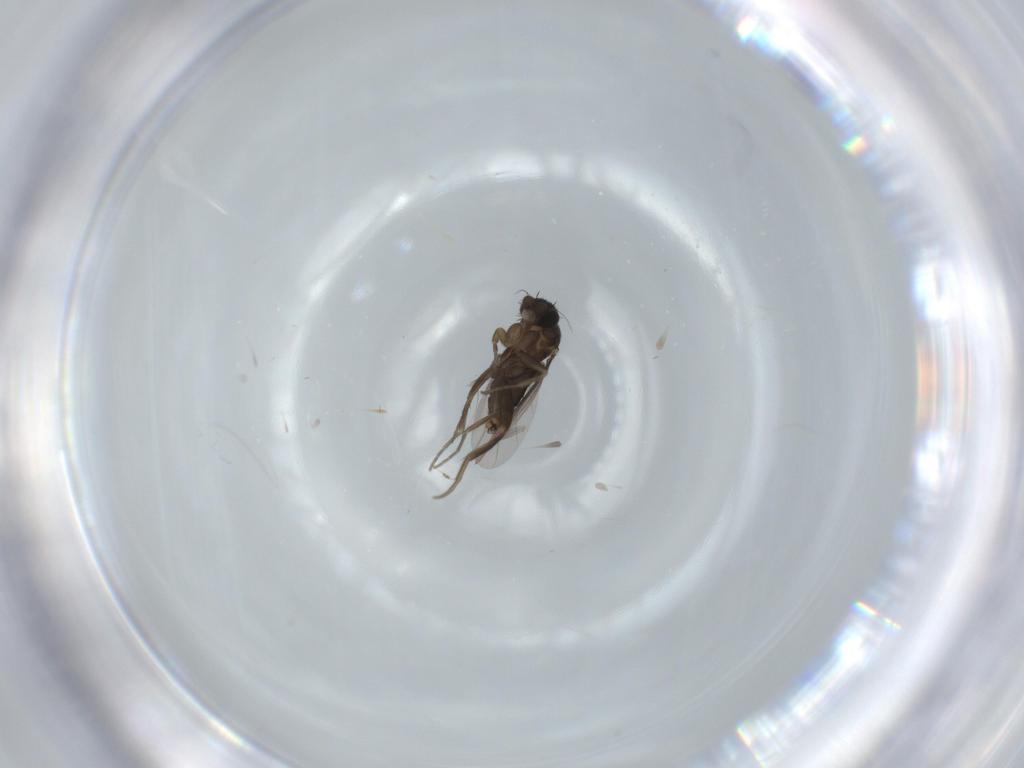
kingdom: Animalia
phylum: Arthropoda
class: Insecta
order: Diptera
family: Phoridae
